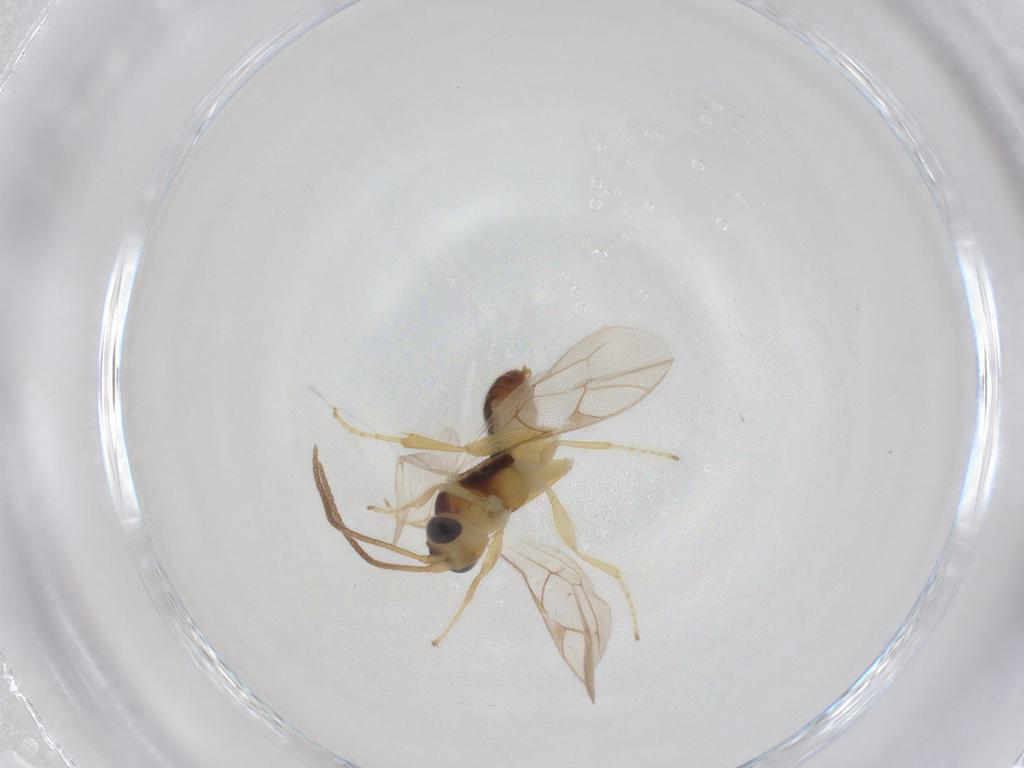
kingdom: Animalia
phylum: Arthropoda
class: Insecta
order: Hymenoptera
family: Ichneumonidae
